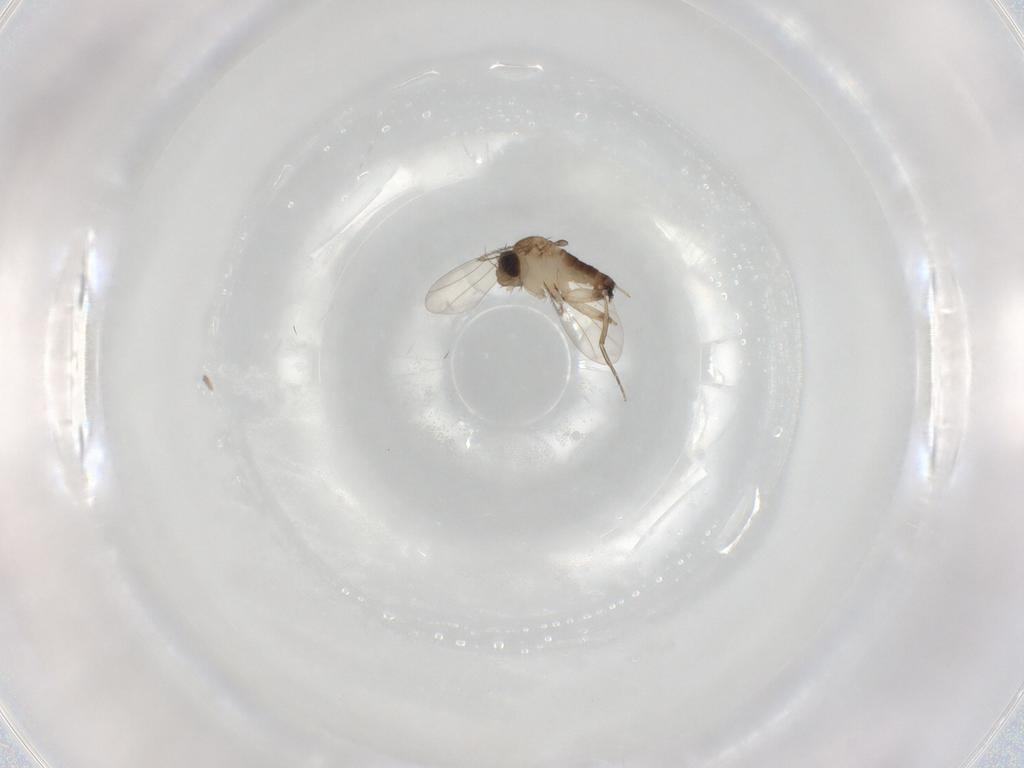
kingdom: Animalia
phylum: Arthropoda
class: Insecta
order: Diptera
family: Phoridae
